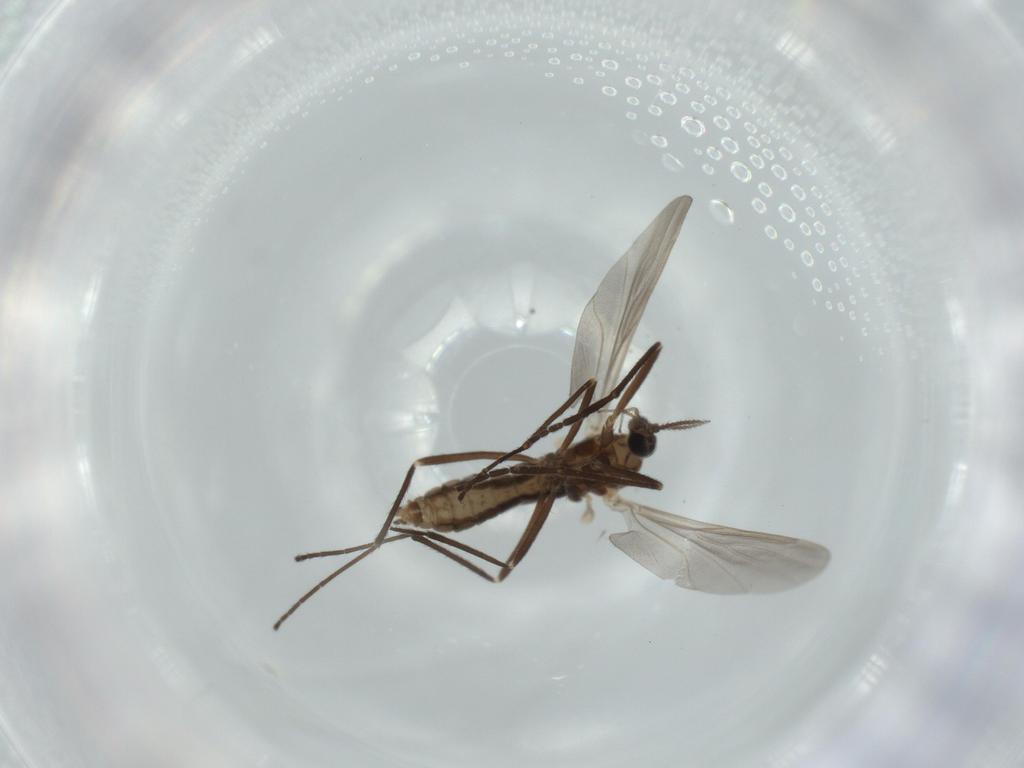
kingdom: Animalia
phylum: Arthropoda
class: Insecta
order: Diptera
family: Cecidomyiidae
